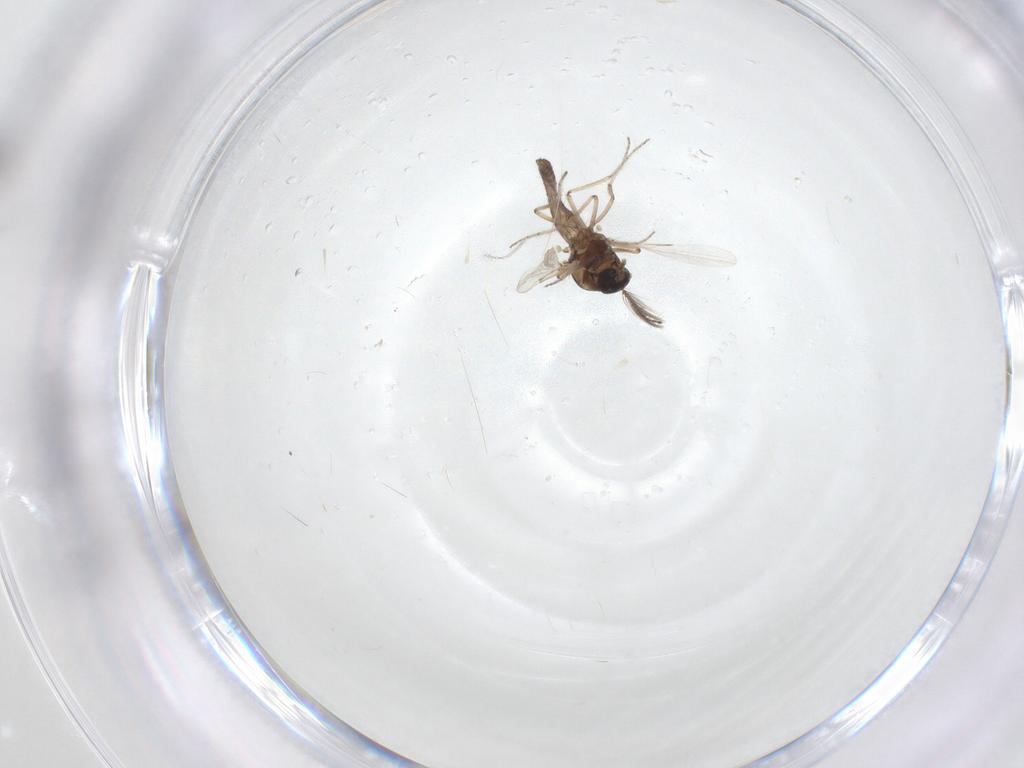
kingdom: Animalia
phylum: Arthropoda
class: Insecta
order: Diptera
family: Ceratopogonidae
